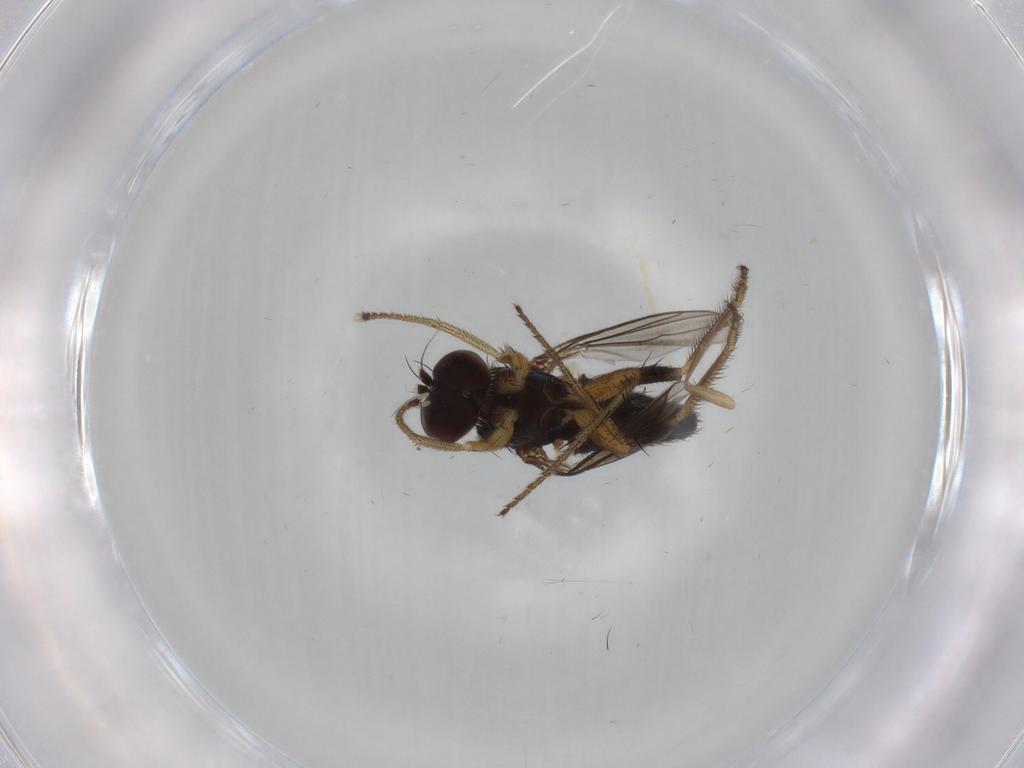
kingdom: Animalia
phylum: Arthropoda
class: Insecta
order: Diptera
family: Dolichopodidae
